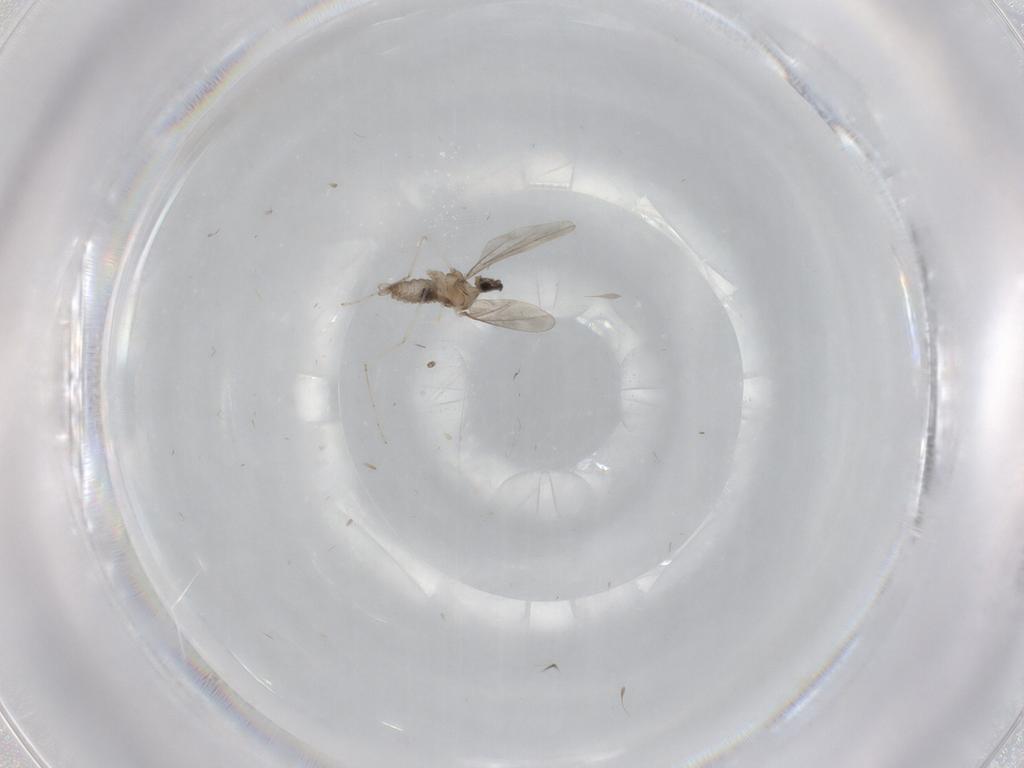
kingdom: Animalia
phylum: Arthropoda
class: Insecta
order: Diptera
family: Cecidomyiidae
